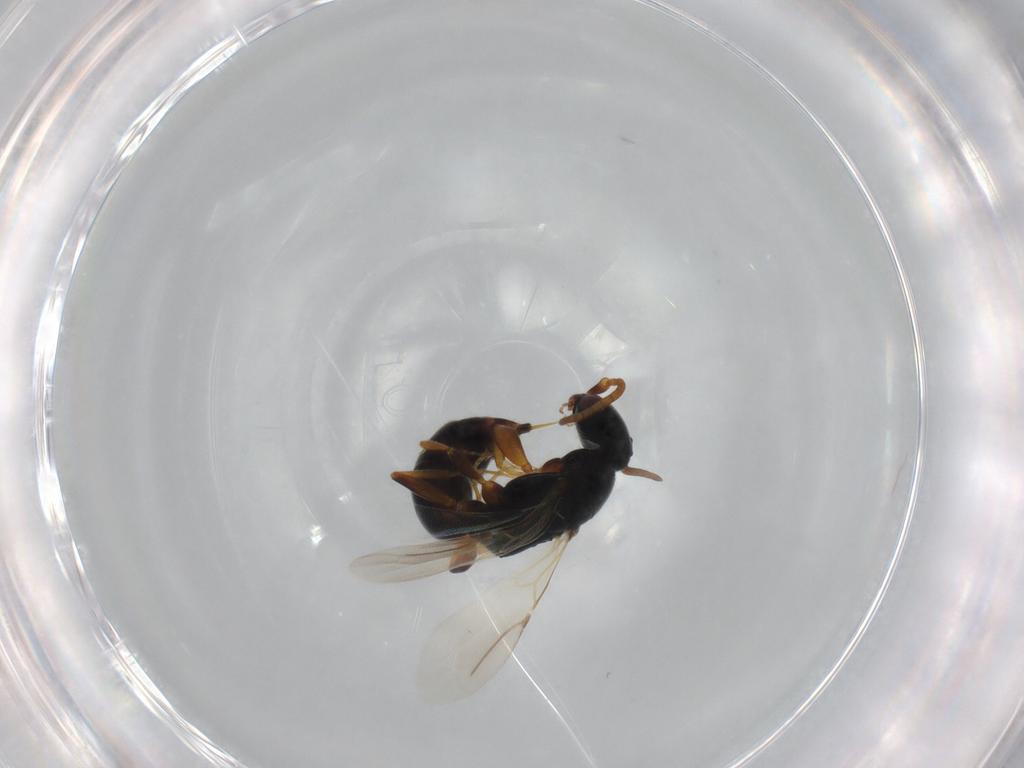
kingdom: Animalia
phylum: Arthropoda
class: Insecta
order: Hymenoptera
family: Bethylidae
